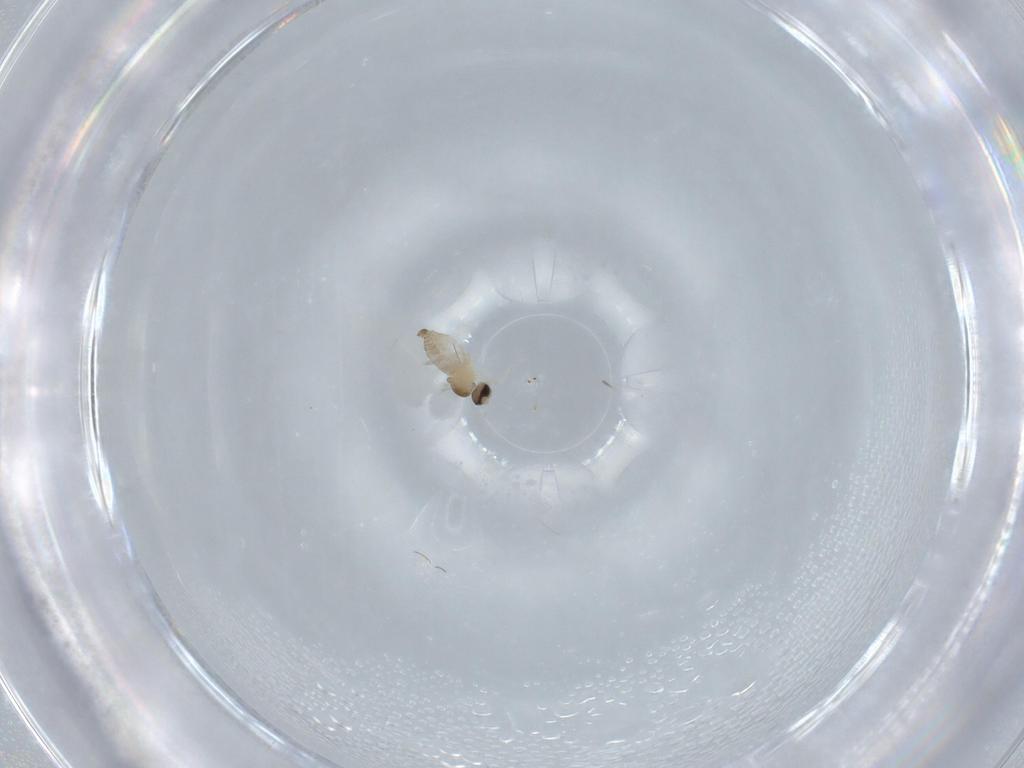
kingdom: Animalia
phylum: Arthropoda
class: Insecta
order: Diptera
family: Cecidomyiidae
